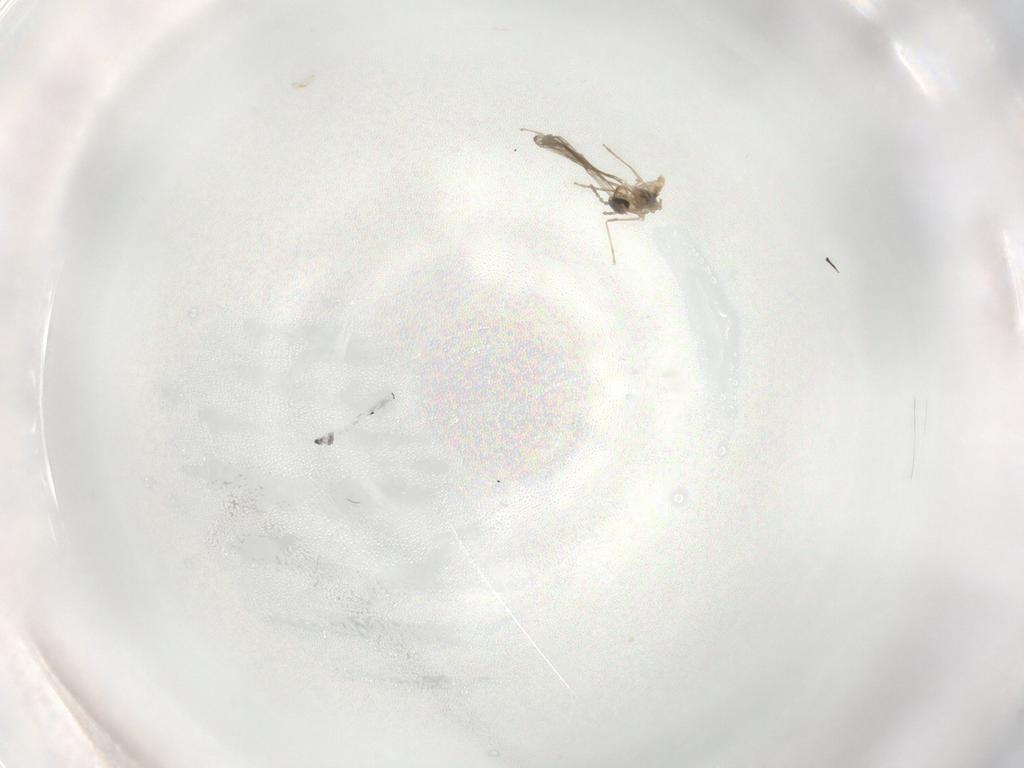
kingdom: Animalia
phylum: Arthropoda
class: Insecta
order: Diptera
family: Cecidomyiidae
